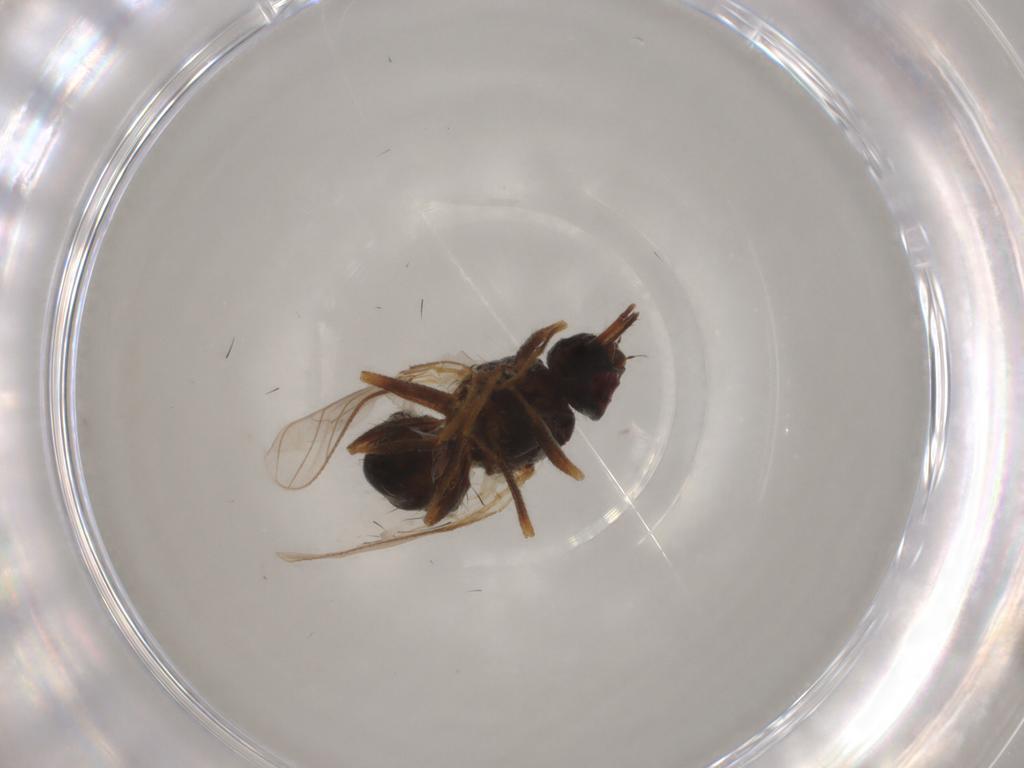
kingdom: Animalia
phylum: Arthropoda
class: Insecta
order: Diptera
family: Muscidae
